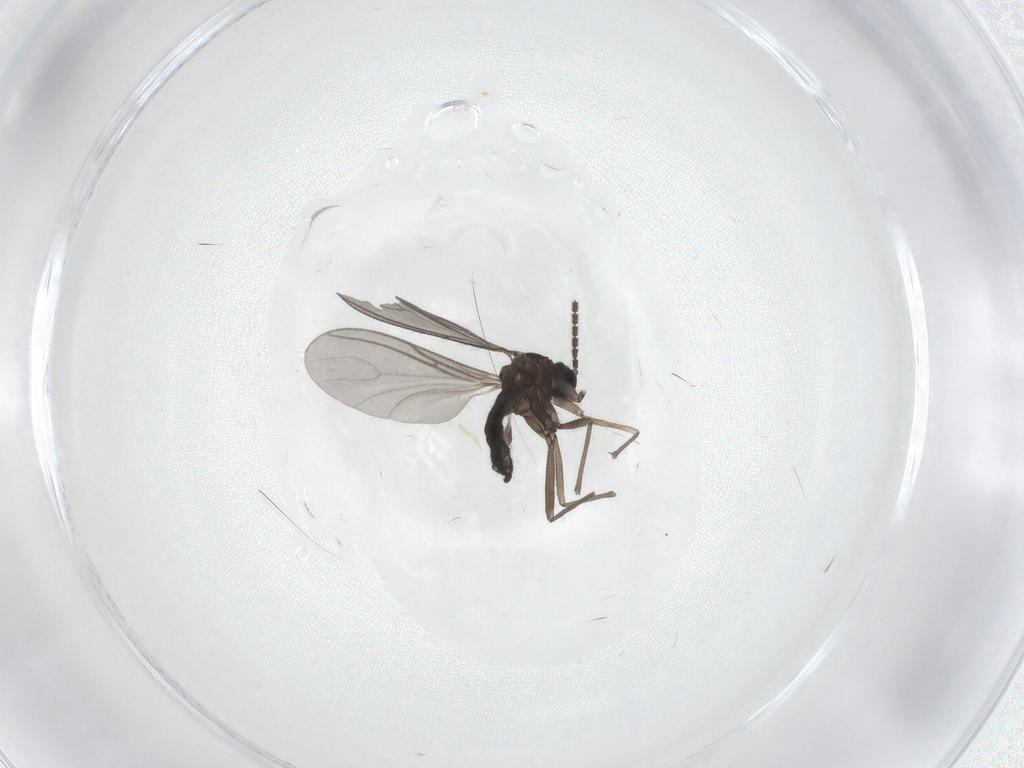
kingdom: Animalia
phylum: Arthropoda
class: Insecta
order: Diptera
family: Sciaridae
